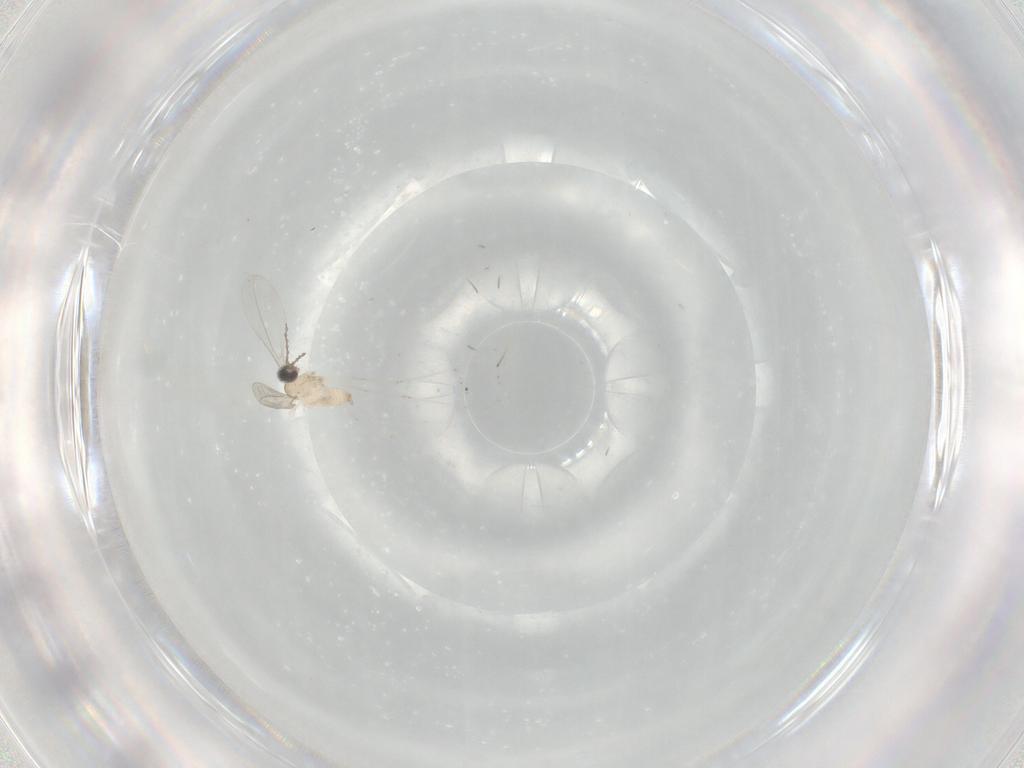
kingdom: Animalia
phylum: Arthropoda
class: Insecta
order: Diptera
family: Cecidomyiidae
